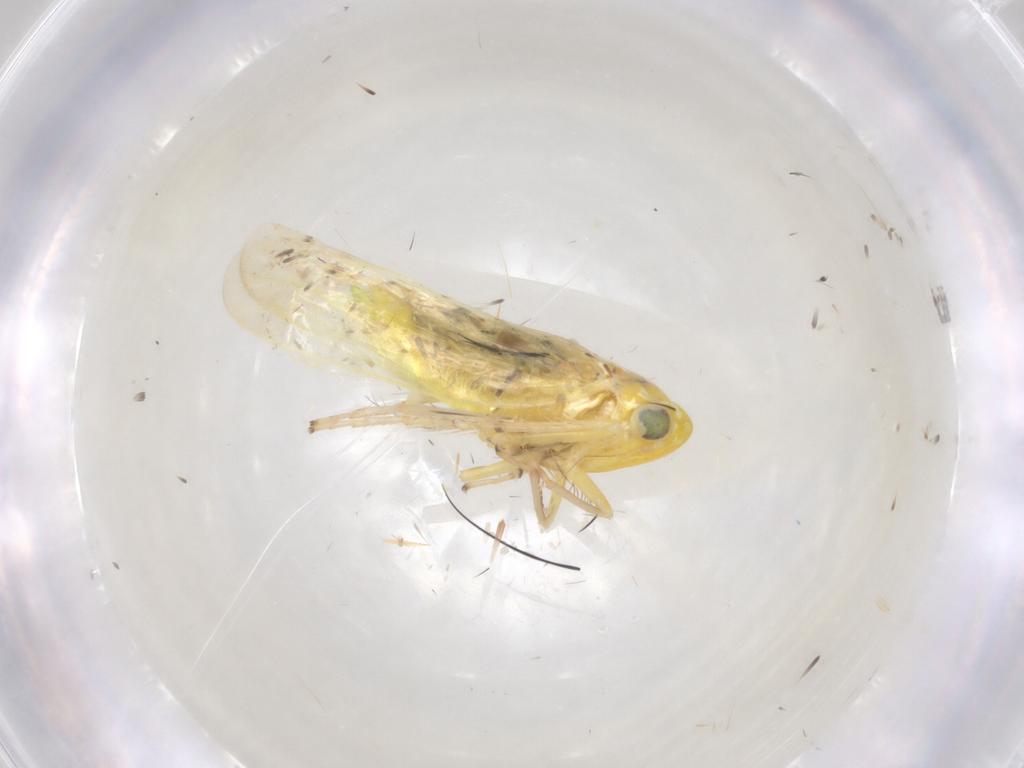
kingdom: Animalia
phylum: Arthropoda
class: Insecta
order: Hemiptera
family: Cicadellidae
